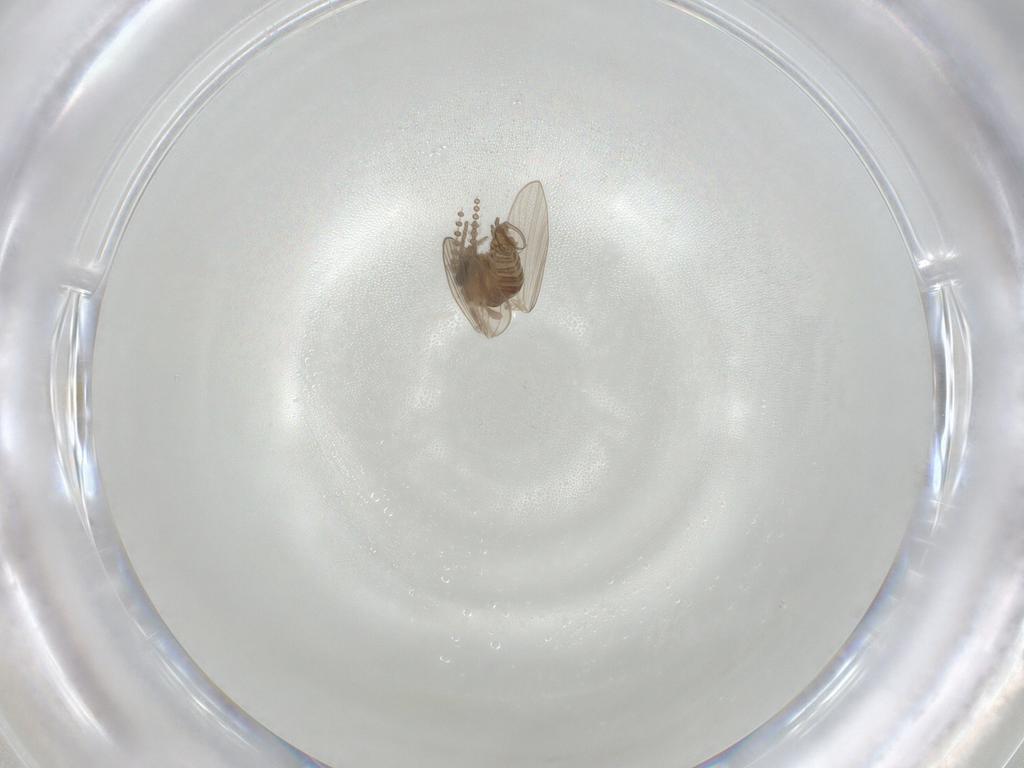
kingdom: Animalia
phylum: Arthropoda
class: Insecta
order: Diptera
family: Psychodidae
